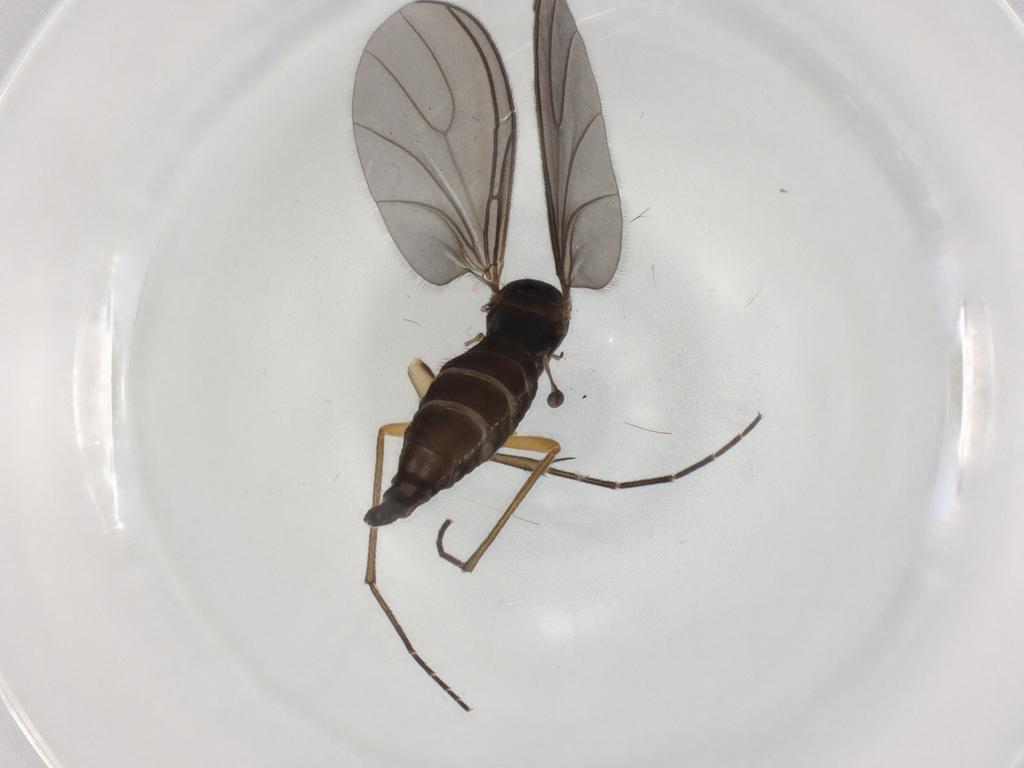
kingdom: Animalia
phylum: Arthropoda
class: Insecta
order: Diptera
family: Sciaridae
